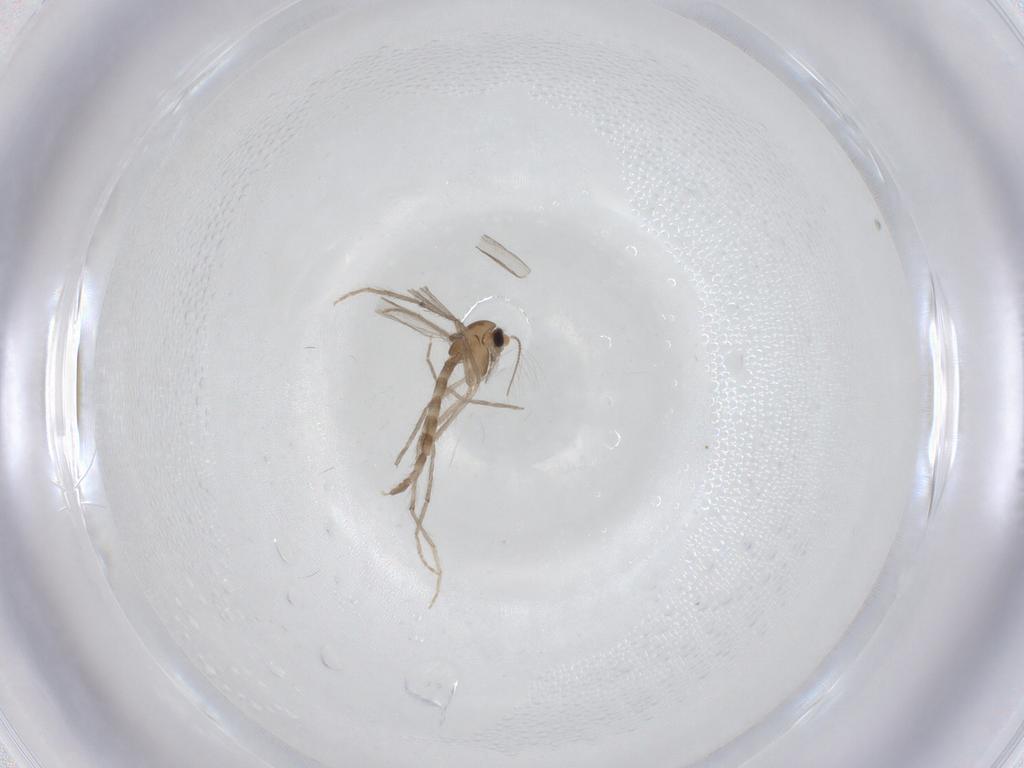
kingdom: Animalia
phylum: Arthropoda
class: Insecta
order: Diptera
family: Chironomidae
